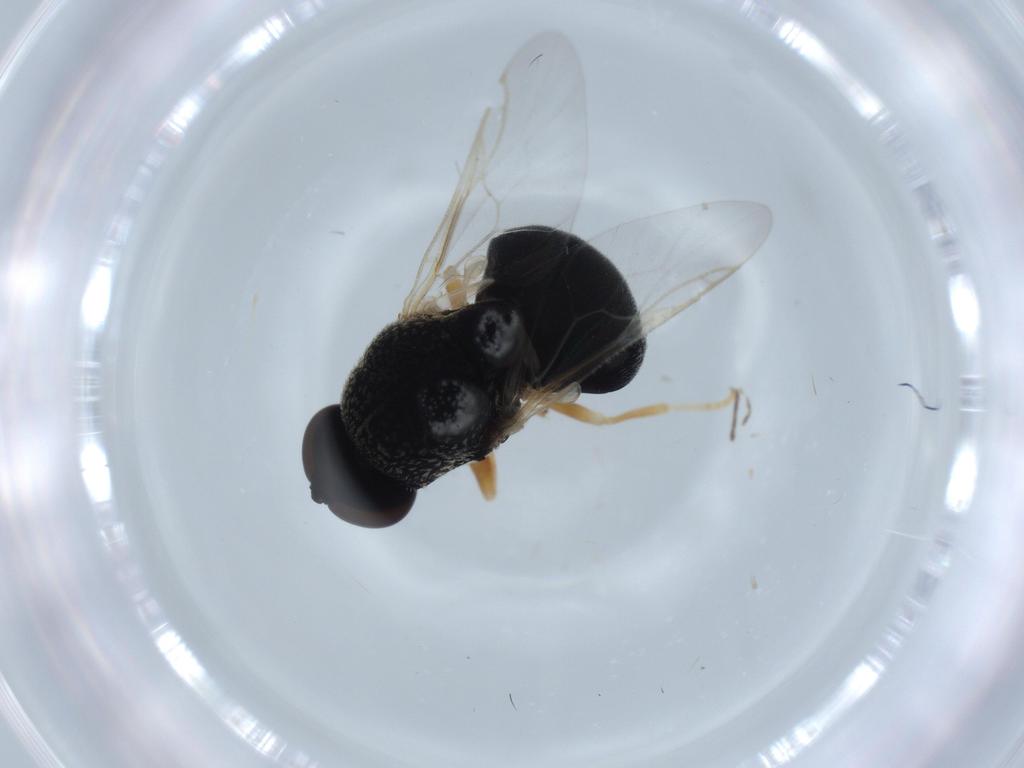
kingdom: Animalia
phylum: Arthropoda
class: Insecta
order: Diptera
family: Stratiomyidae
